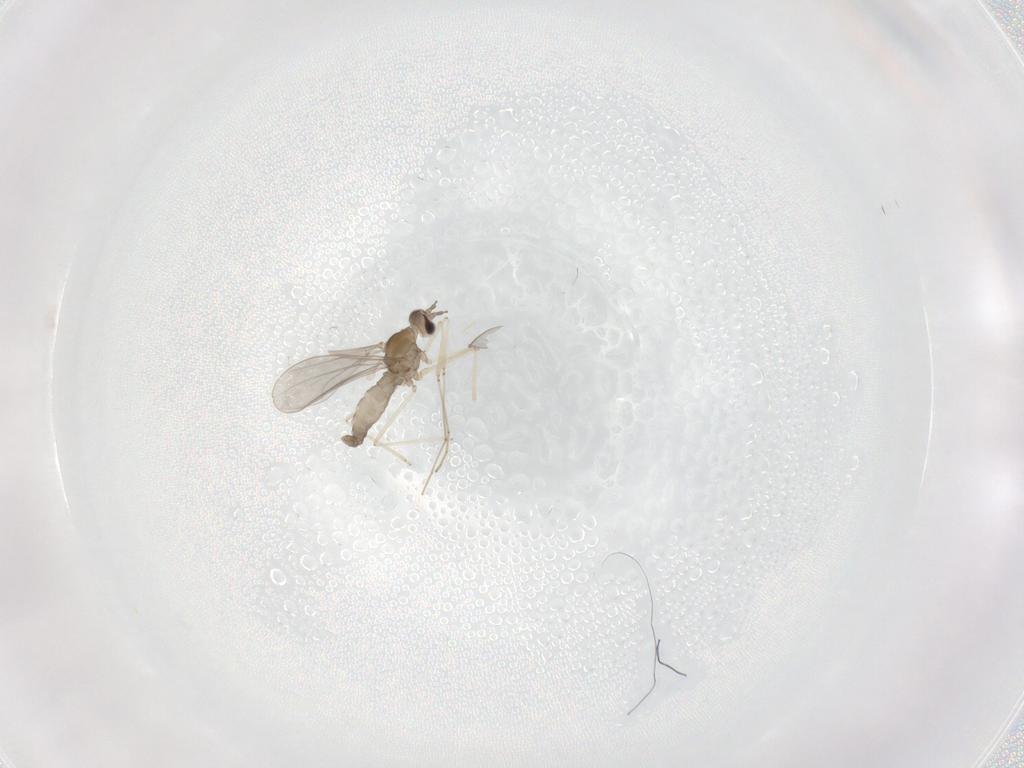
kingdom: Animalia
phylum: Arthropoda
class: Insecta
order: Diptera
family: Cecidomyiidae
